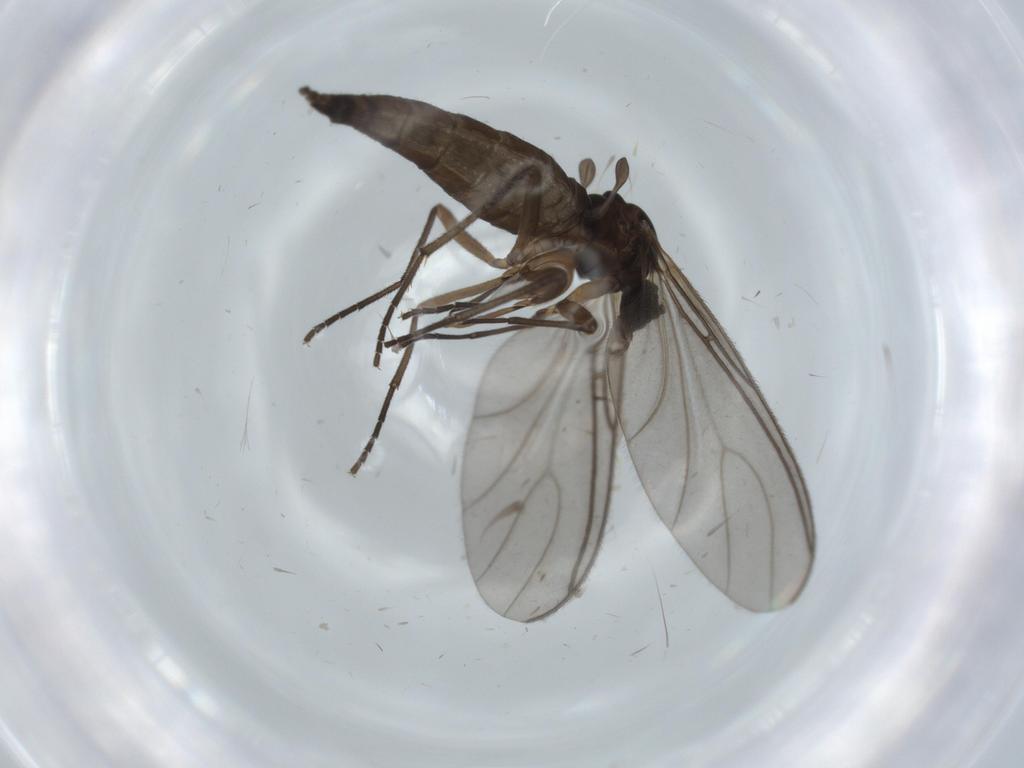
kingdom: Animalia
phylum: Arthropoda
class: Insecta
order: Diptera
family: Sciaridae
